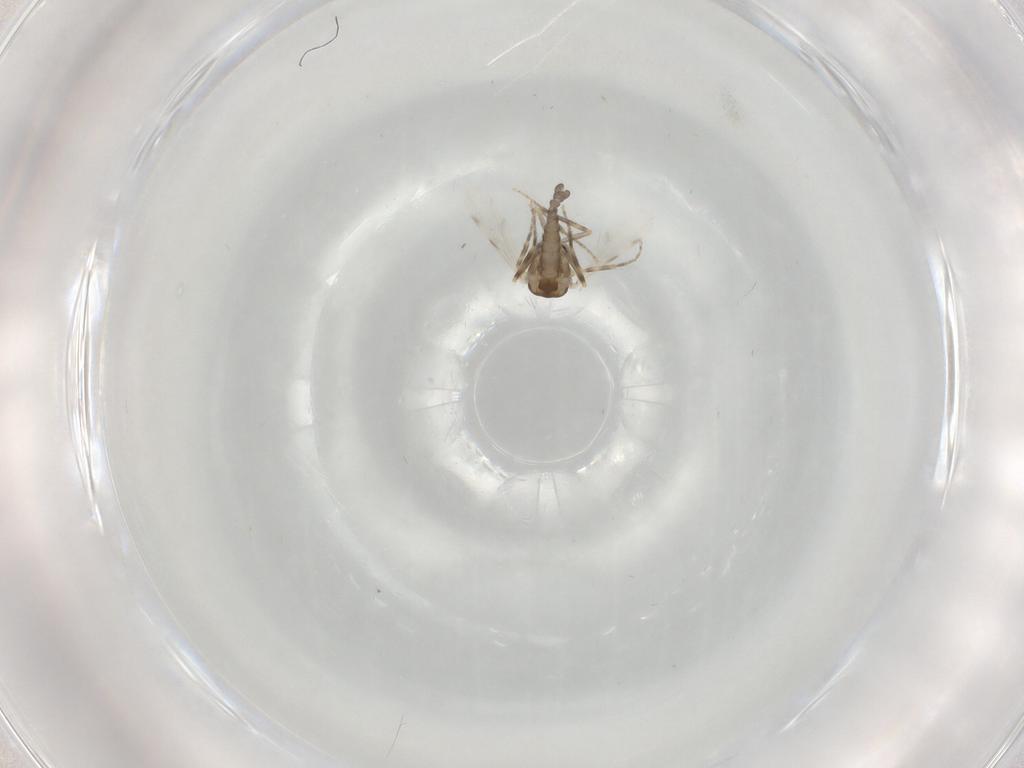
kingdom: Animalia
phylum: Arthropoda
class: Insecta
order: Diptera
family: Ceratopogonidae
